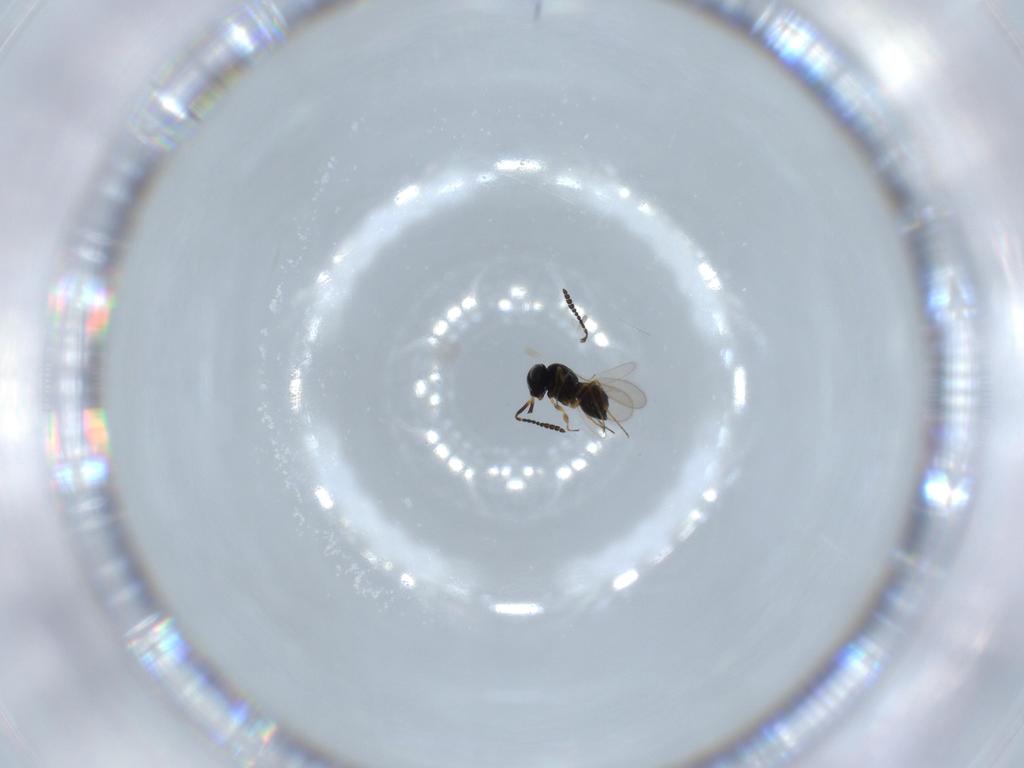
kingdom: Animalia
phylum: Arthropoda
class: Insecta
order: Hymenoptera
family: Scelionidae
